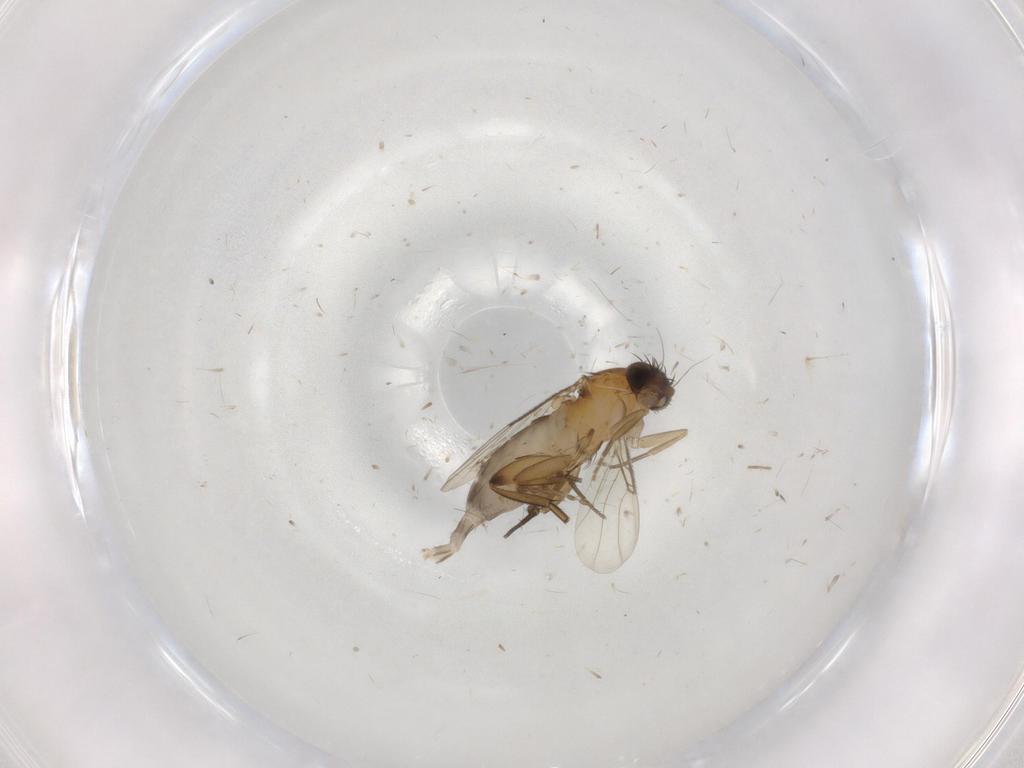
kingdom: Animalia
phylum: Arthropoda
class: Insecta
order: Diptera
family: Phoridae
